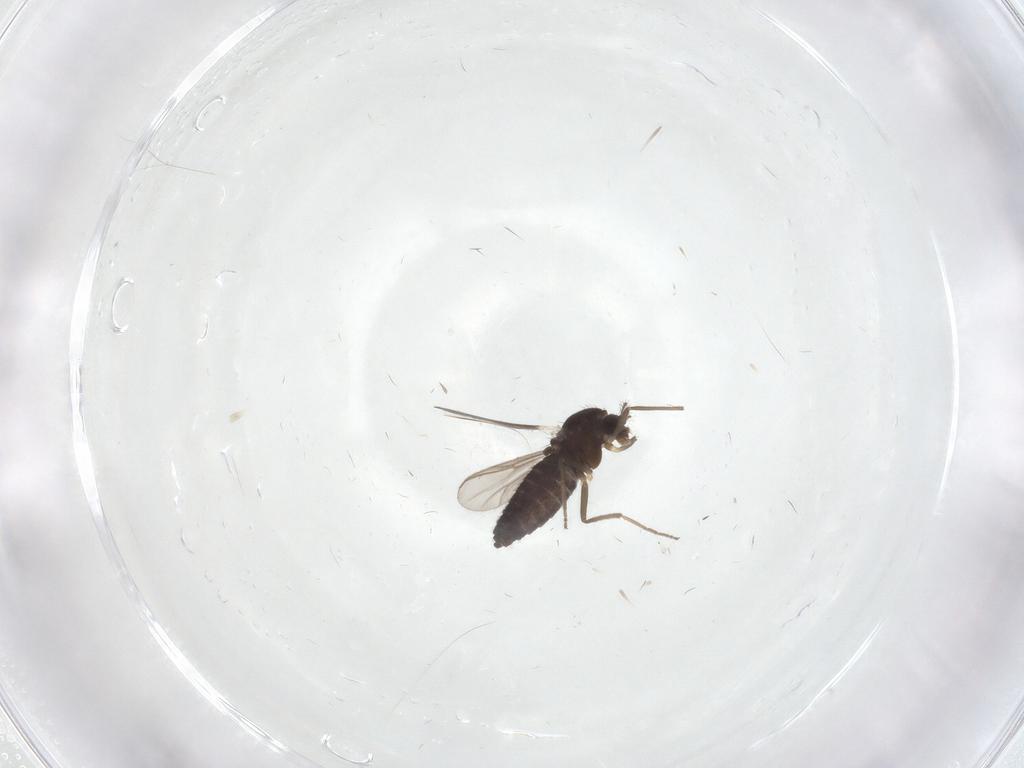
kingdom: Animalia
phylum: Arthropoda
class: Insecta
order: Diptera
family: Chironomidae
